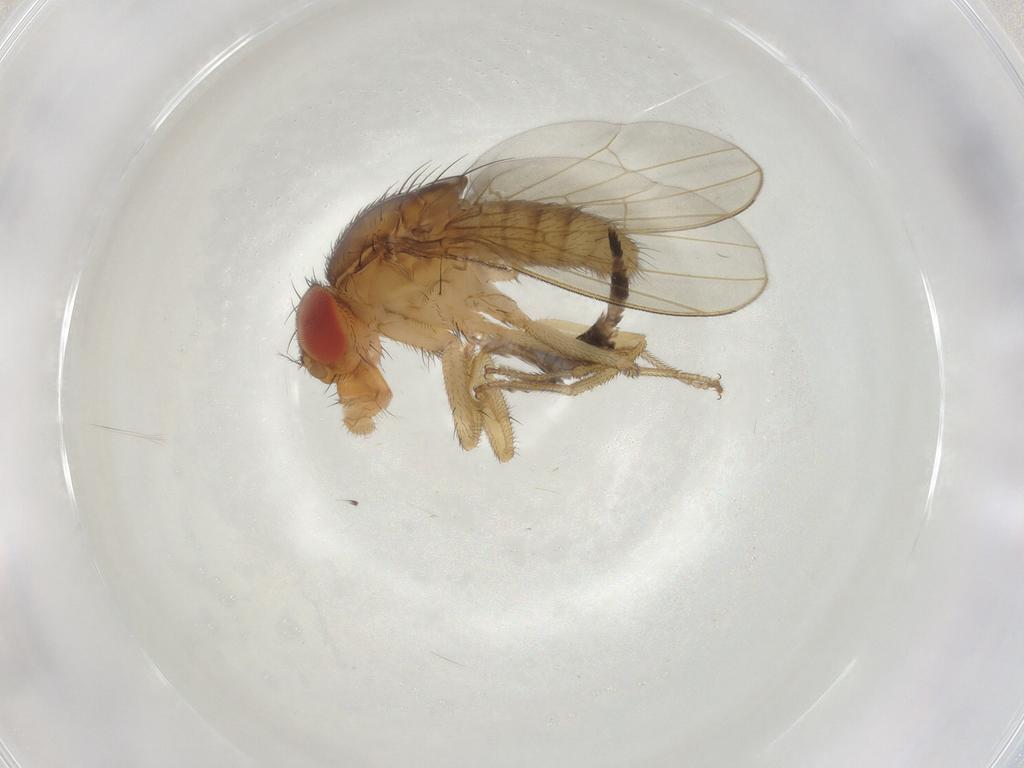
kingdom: Animalia
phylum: Arthropoda
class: Insecta
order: Diptera
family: Drosophilidae
